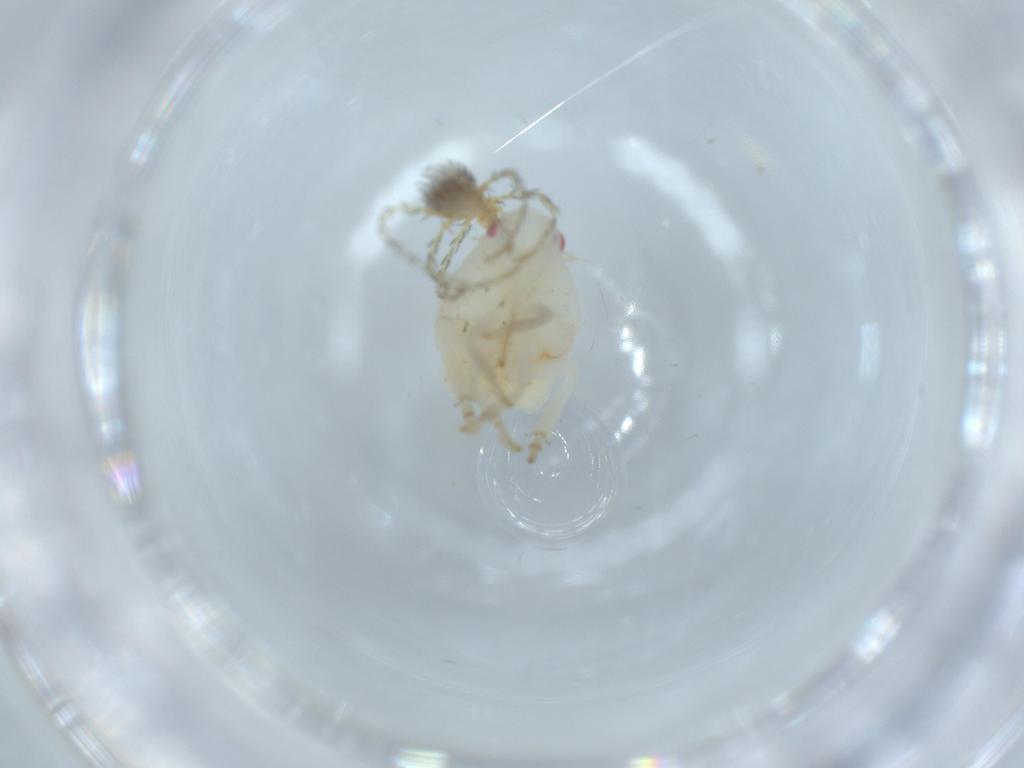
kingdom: Animalia
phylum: Arthropoda
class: Insecta
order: Hemiptera
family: Flatidae
